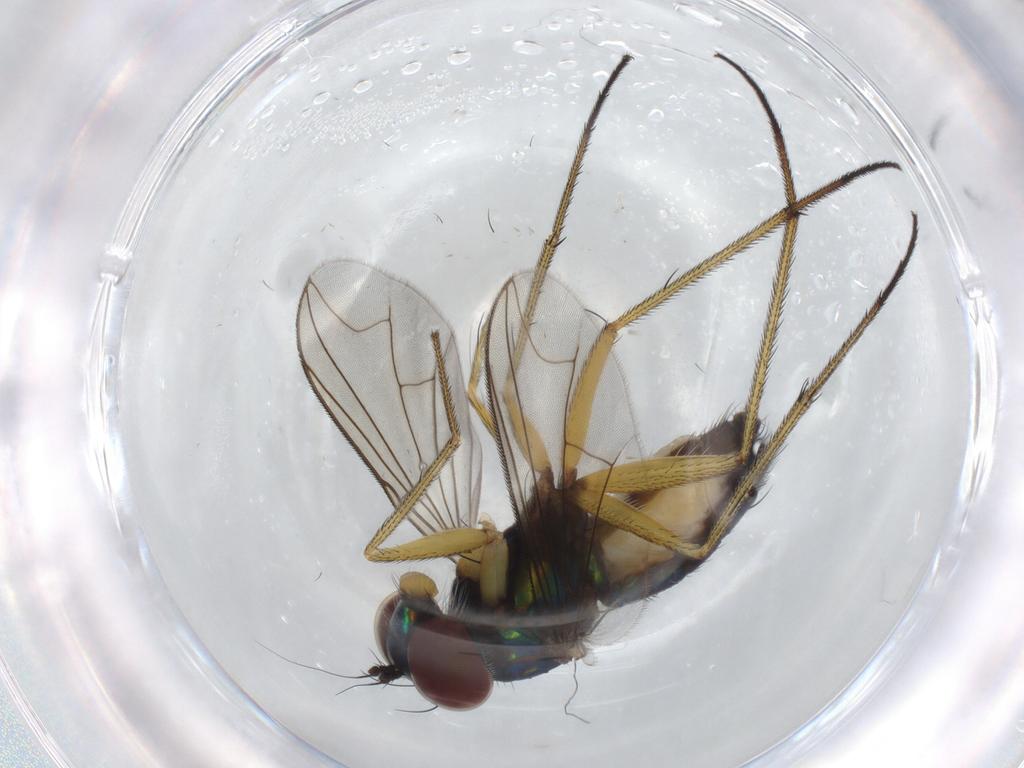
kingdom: Animalia
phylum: Arthropoda
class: Insecta
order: Diptera
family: Dolichopodidae
